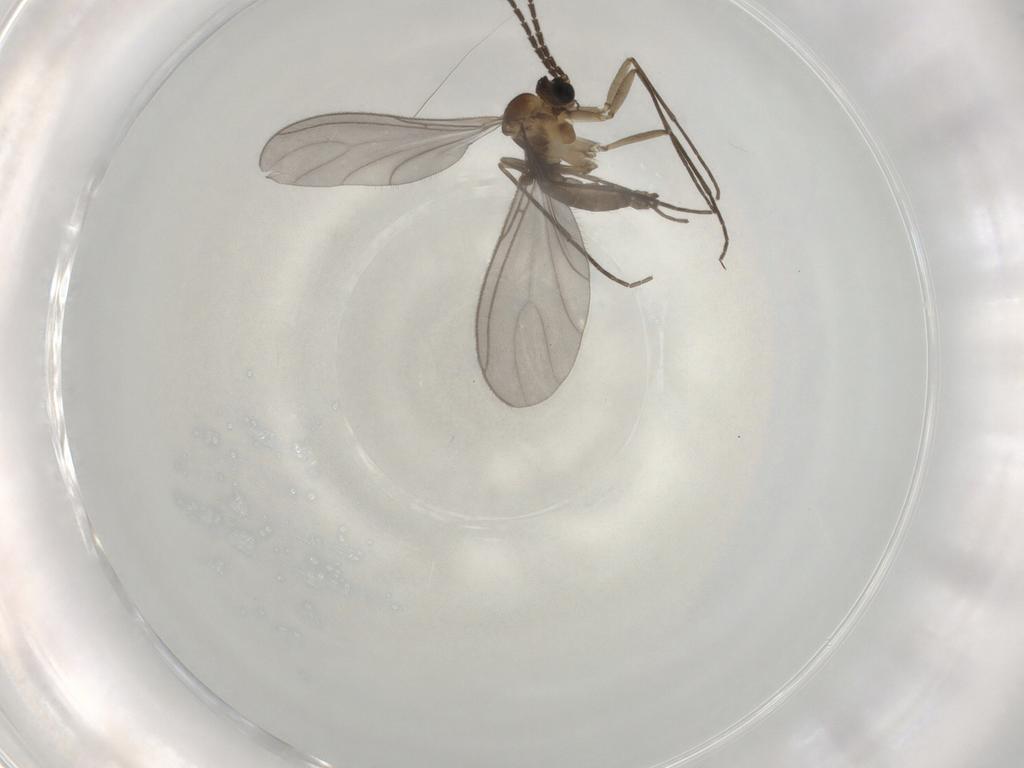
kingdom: Animalia
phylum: Arthropoda
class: Insecta
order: Diptera
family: Sciaridae
